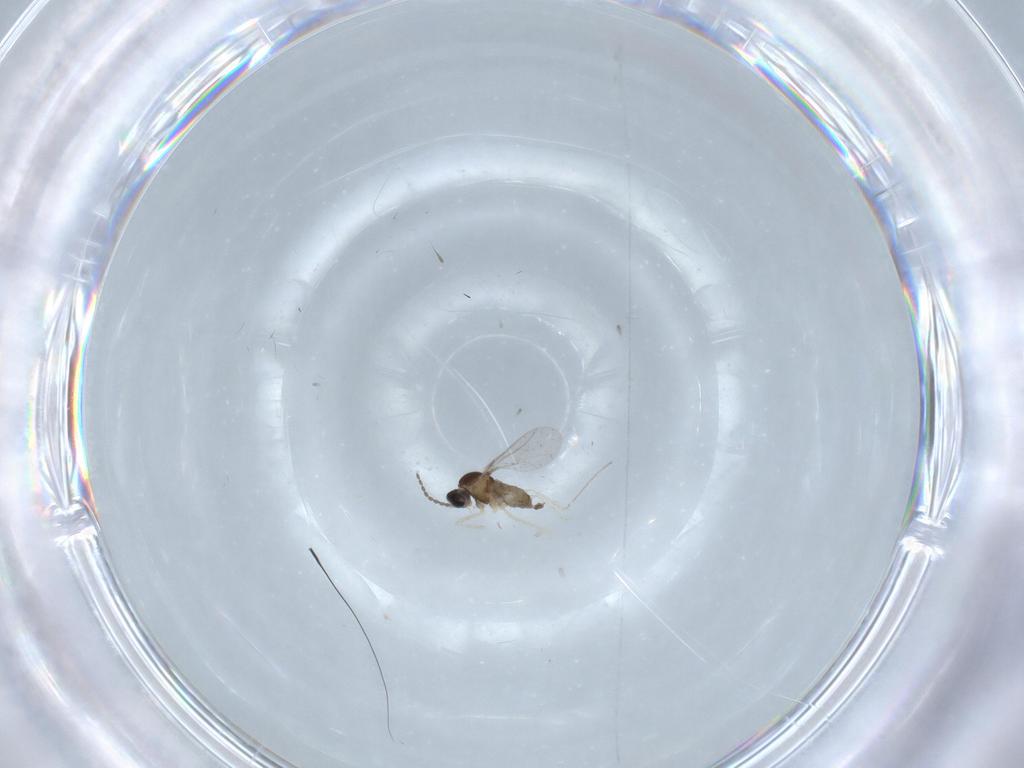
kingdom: Animalia
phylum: Arthropoda
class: Insecta
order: Diptera
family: Cecidomyiidae
